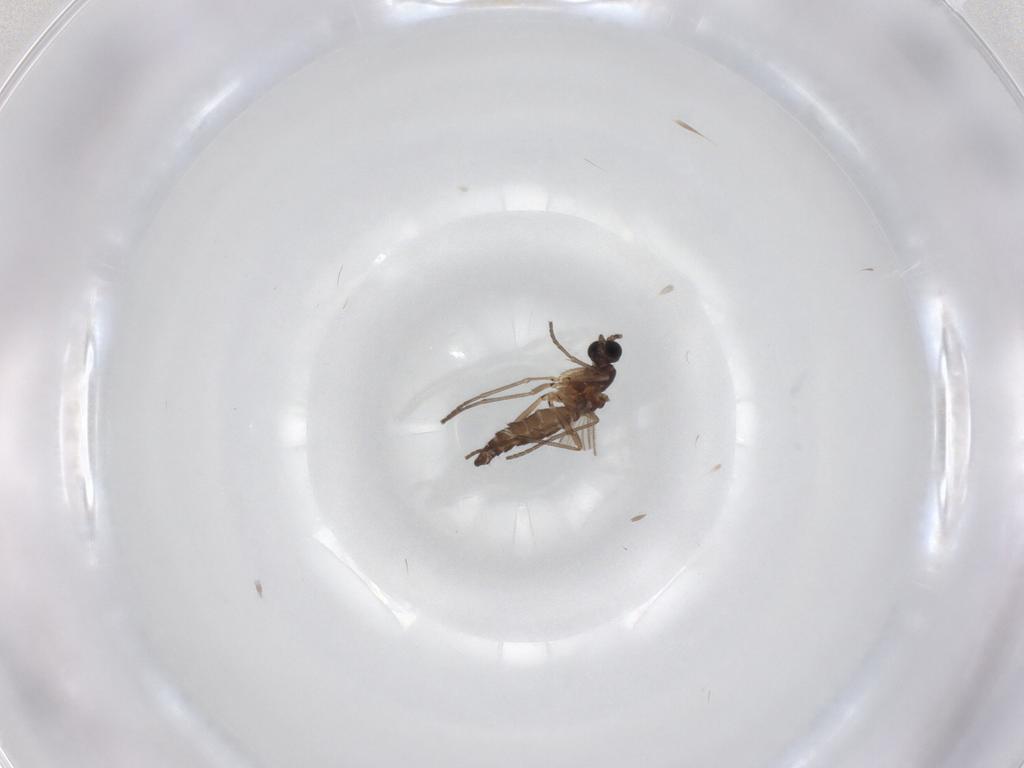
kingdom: Animalia
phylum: Arthropoda
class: Insecta
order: Diptera
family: Sciaridae
